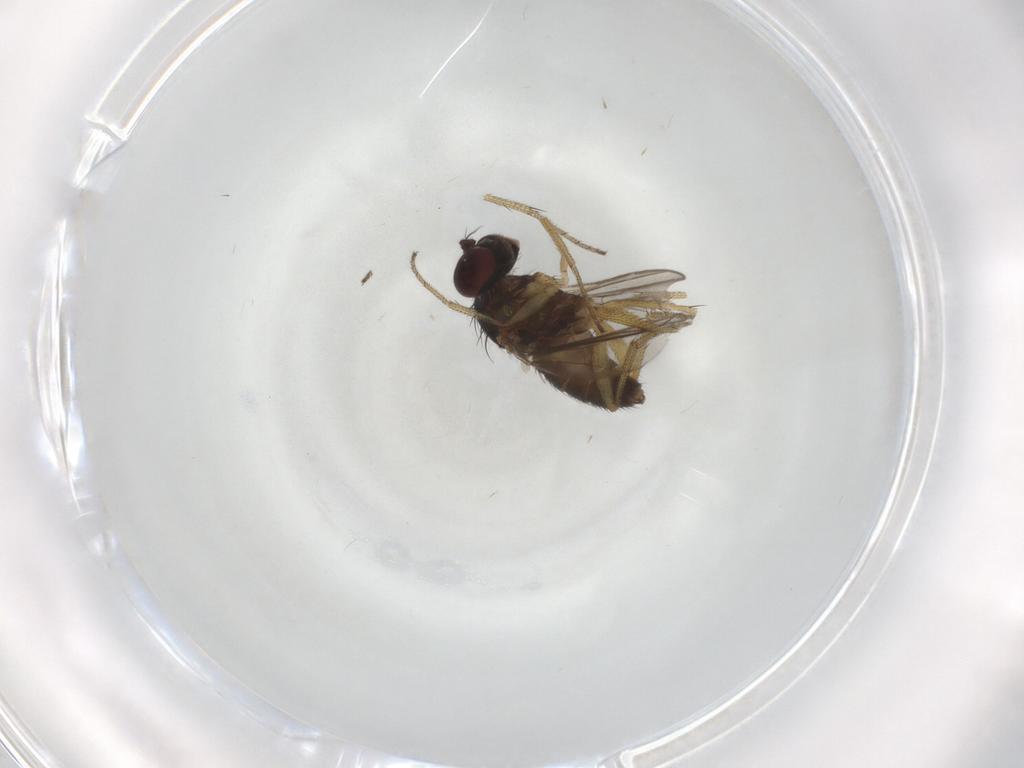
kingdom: Animalia
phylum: Arthropoda
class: Insecta
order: Diptera
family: Dolichopodidae
